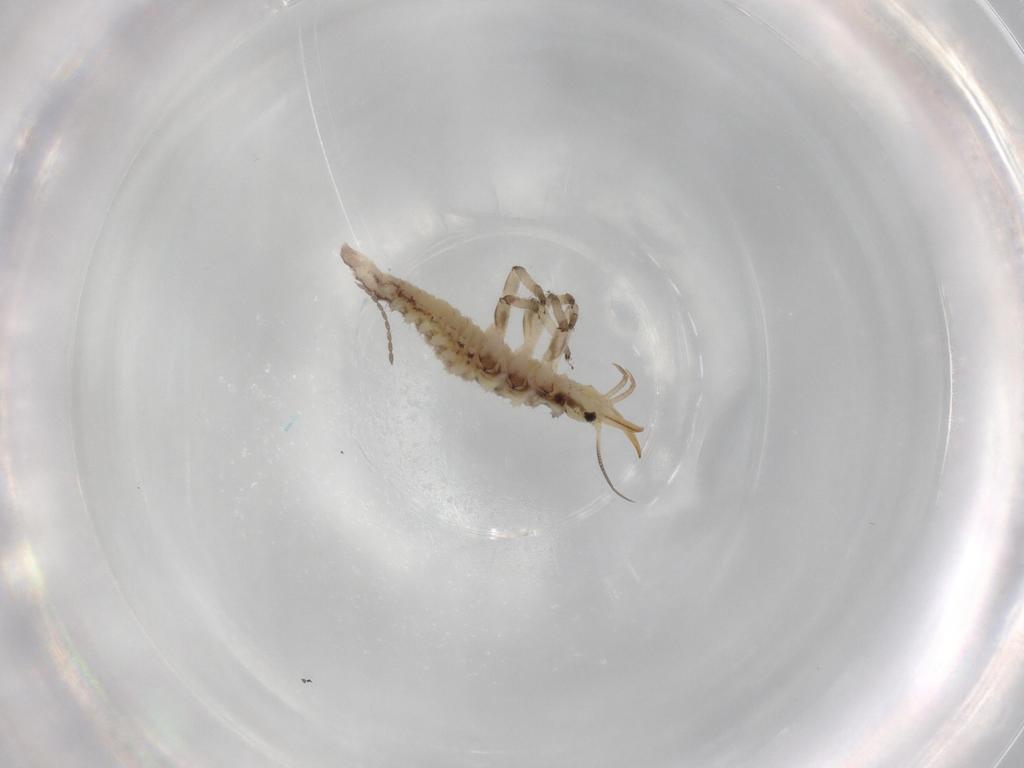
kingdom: Animalia
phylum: Arthropoda
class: Insecta
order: Neuroptera
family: Chrysopidae
